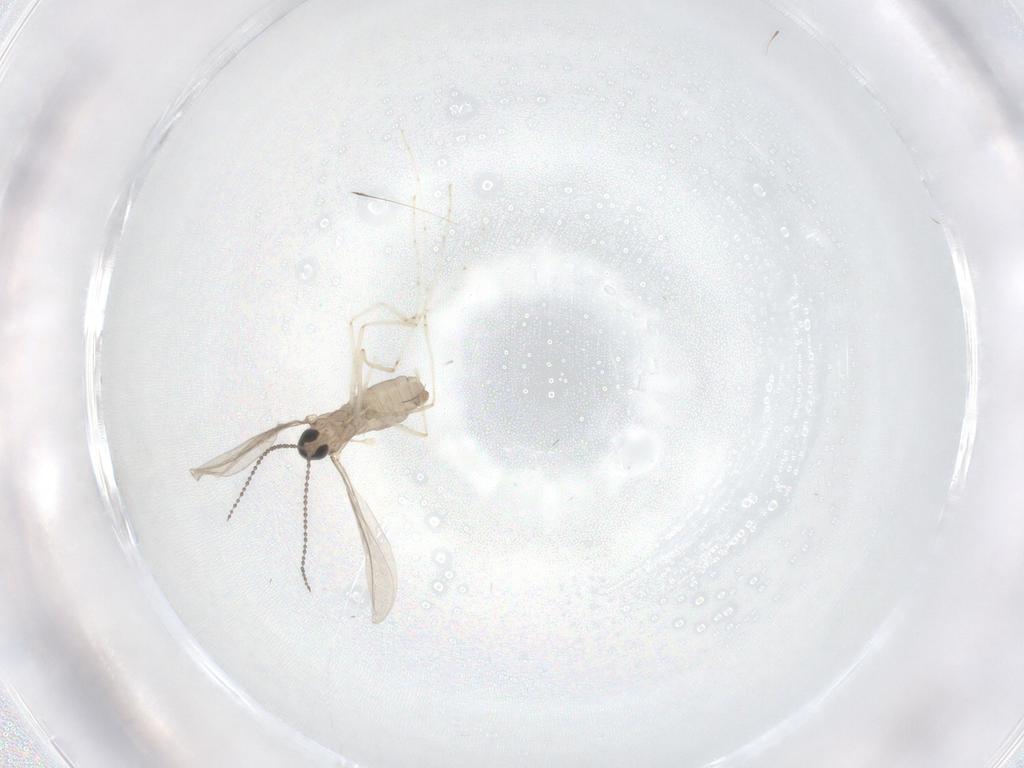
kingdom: Animalia
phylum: Arthropoda
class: Insecta
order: Diptera
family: Cecidomyiidae
